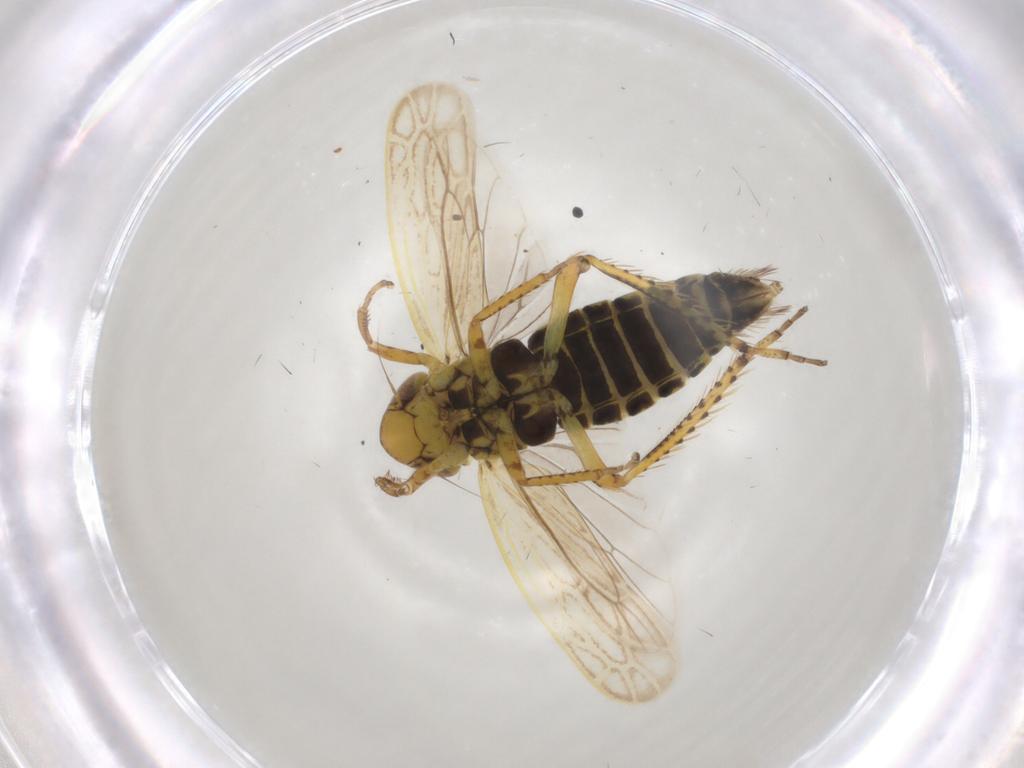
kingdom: Animalia
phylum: Arthropoda
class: Insecta
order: Hemiptera
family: Cicadellidae
